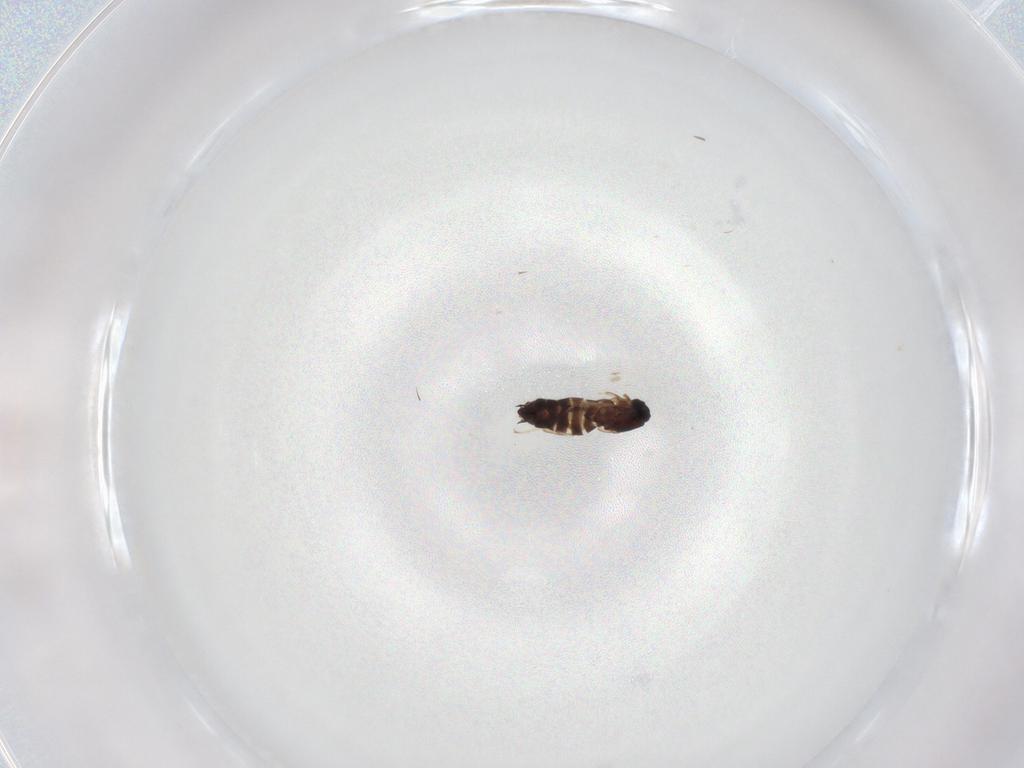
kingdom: Animalia
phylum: Arthropoda
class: Insecta
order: Diptera
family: Scatopsidae
